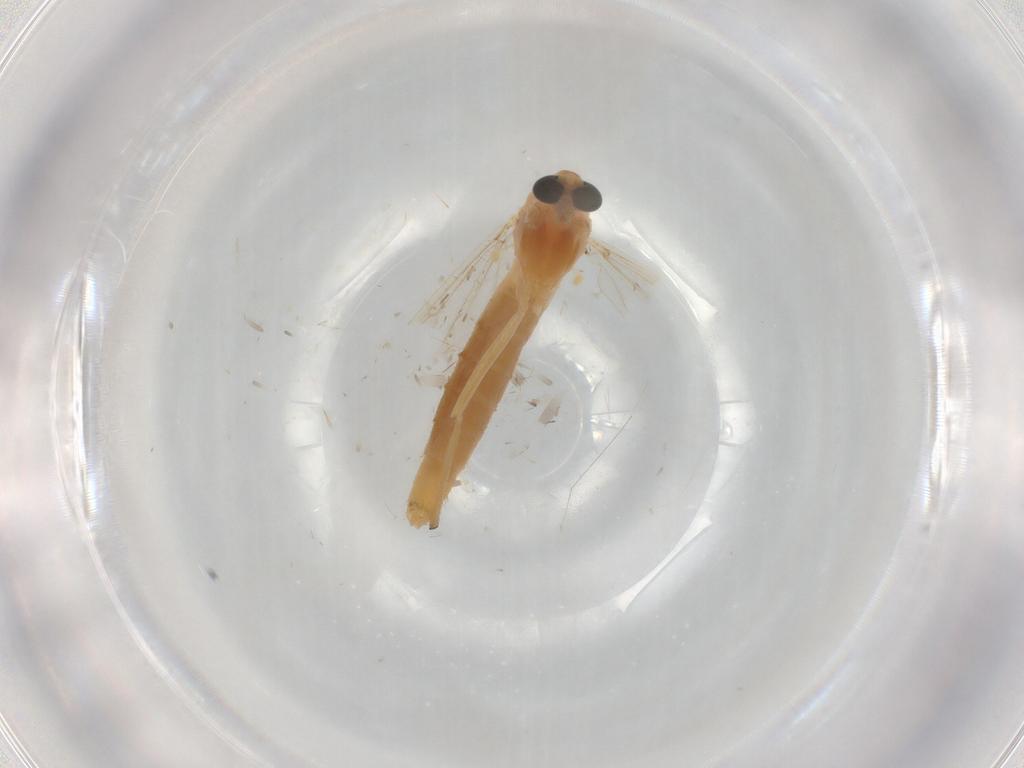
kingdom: Animalia
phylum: Arthropoda
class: Insecta
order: Diptera
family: Chironomidae
